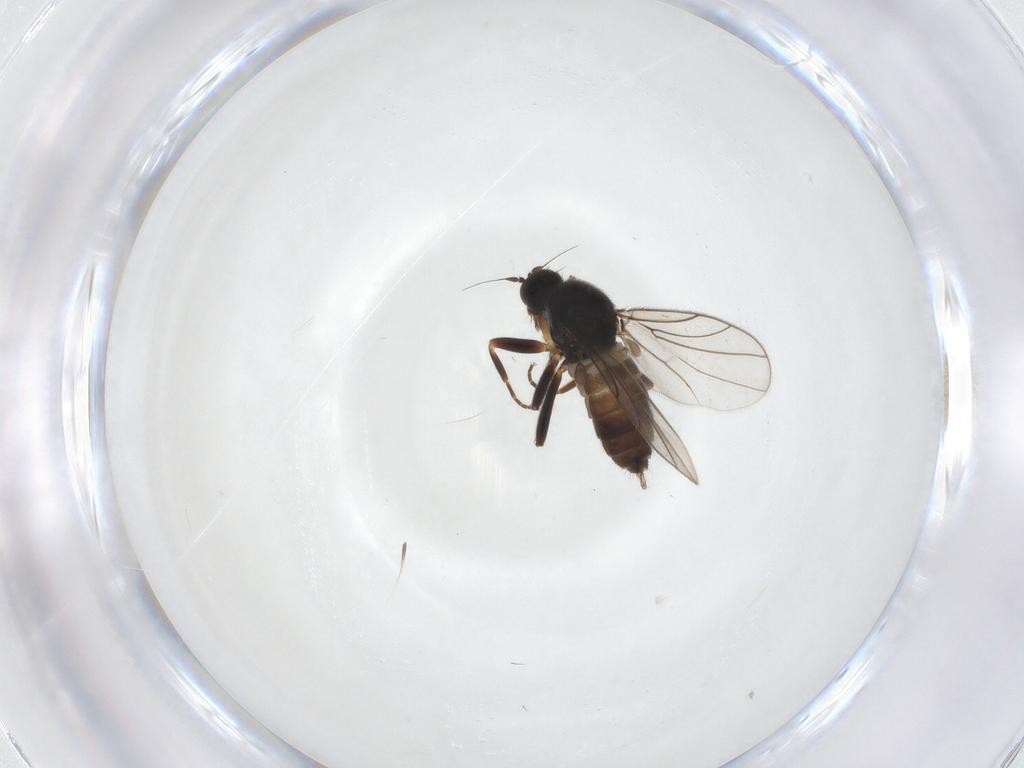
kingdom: Animalia
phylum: Arthropoda
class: Insecta
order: Diptera
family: Hybotidae
